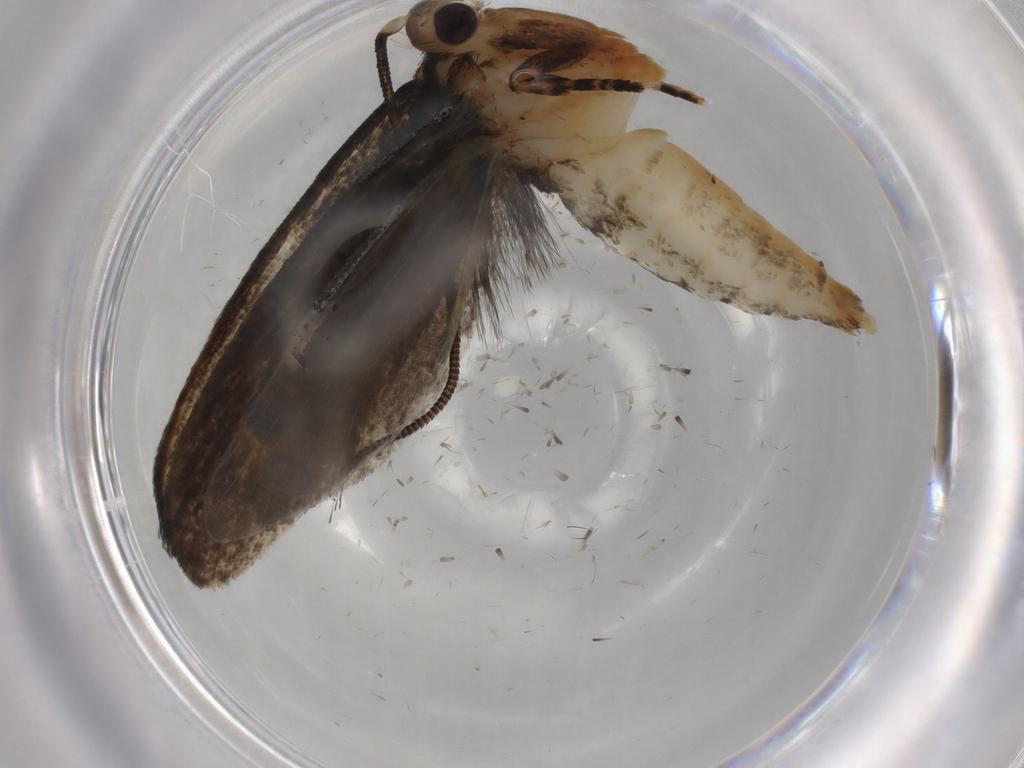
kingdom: Animalia
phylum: Arthropoda
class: Insecta
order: Lepidoptera
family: Tineidae
